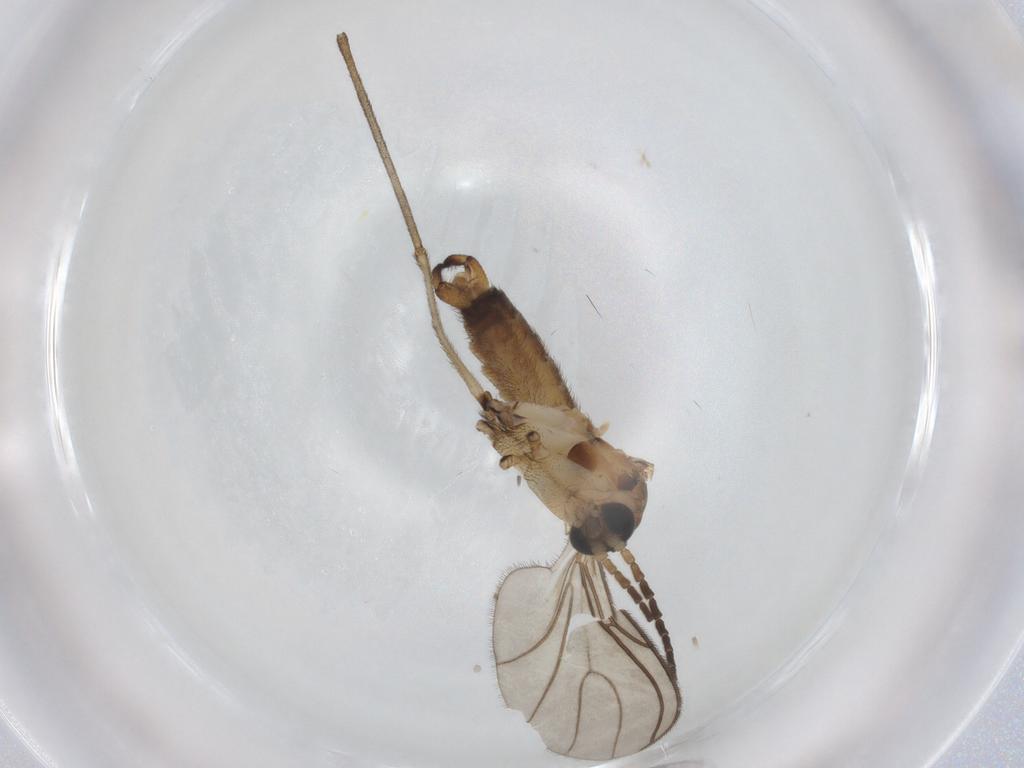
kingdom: Animalia
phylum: Arthropoda
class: Insecta
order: Diptera
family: Sciaridae
